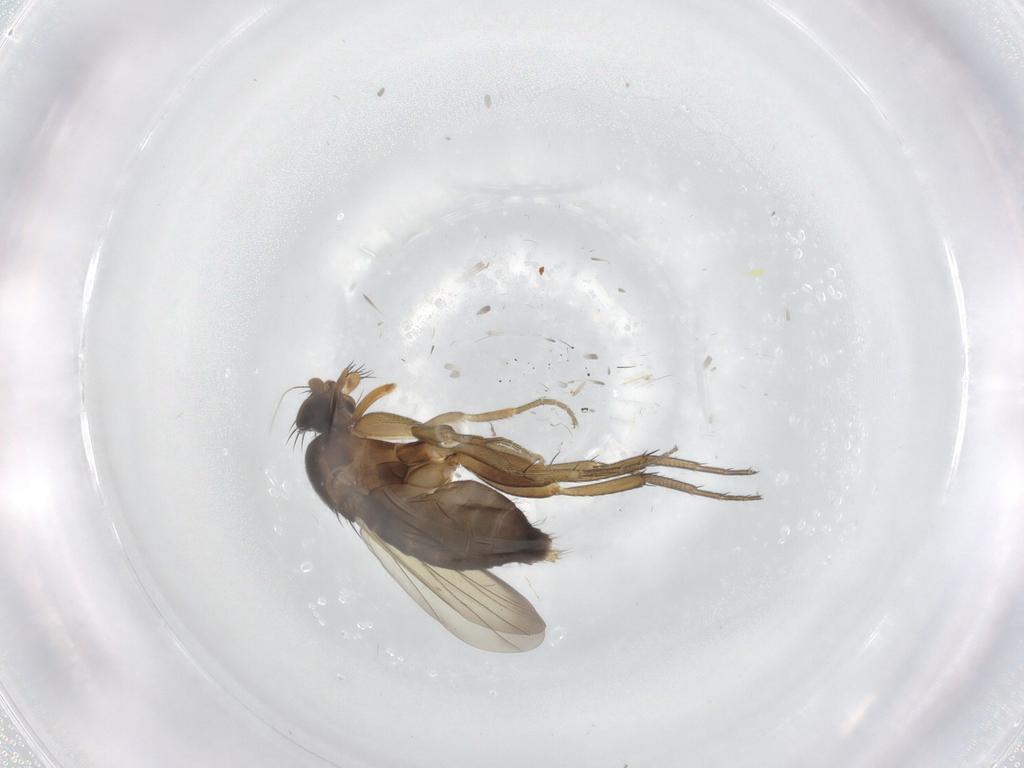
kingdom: Animalia
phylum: Arthropoda
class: Insecta
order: Diptera
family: Phoridae
